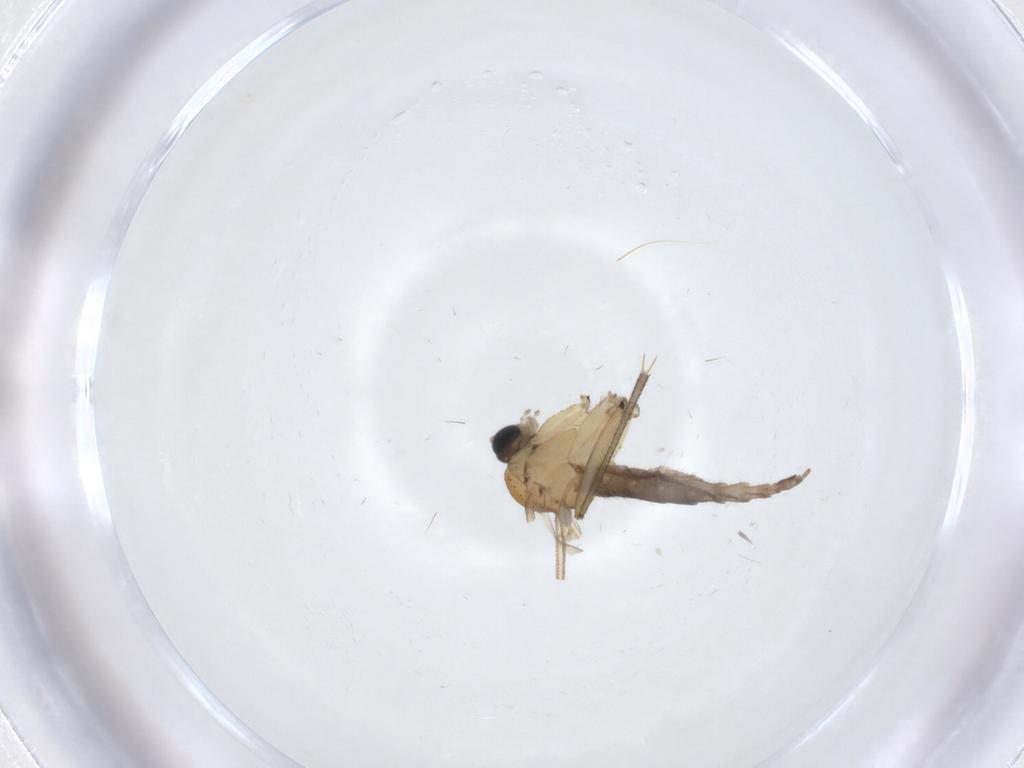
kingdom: Animalia
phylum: Arthropoda
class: Insecta
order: Diptera
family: Sciaridae
